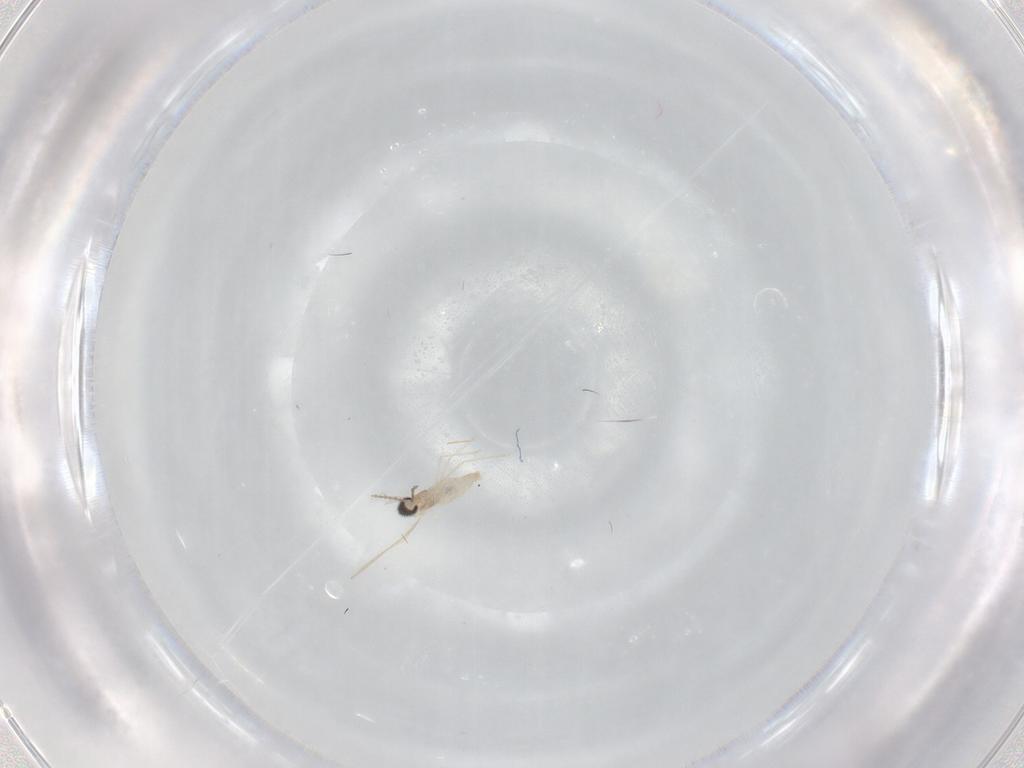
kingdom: Animalia
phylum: Arthropoda
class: Insecta
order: Diptera
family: Cecidomyiidae
